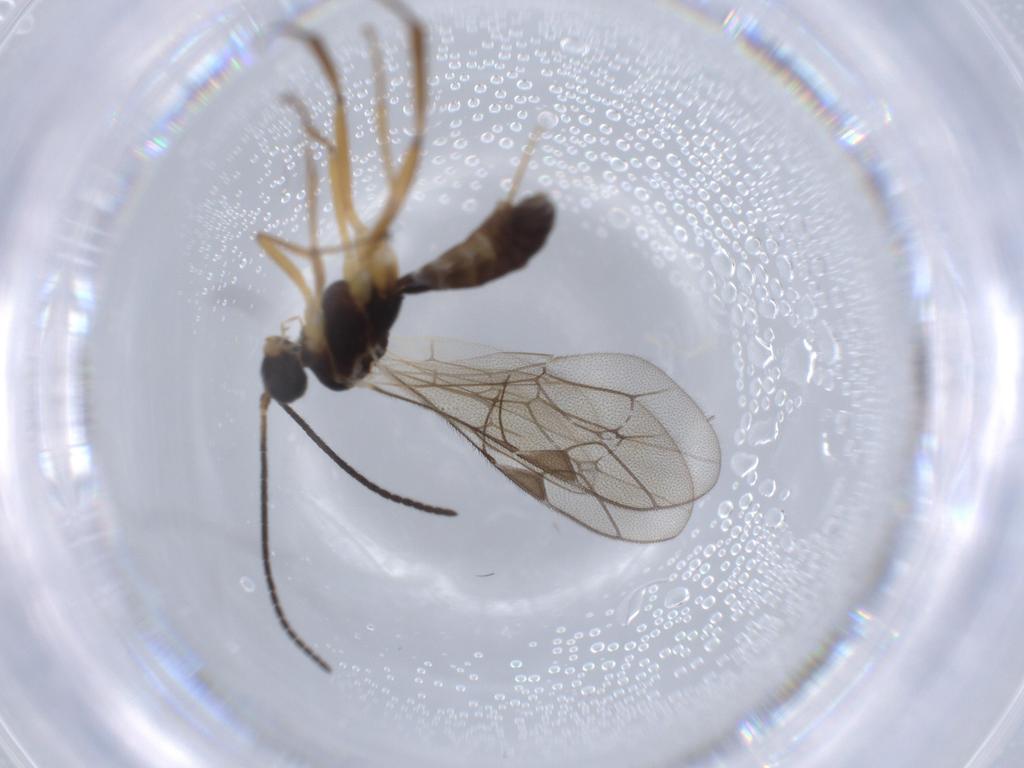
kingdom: Animalia
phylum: Arthropoda
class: Insecta
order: Hymenoptera
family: Ichneumonidae
